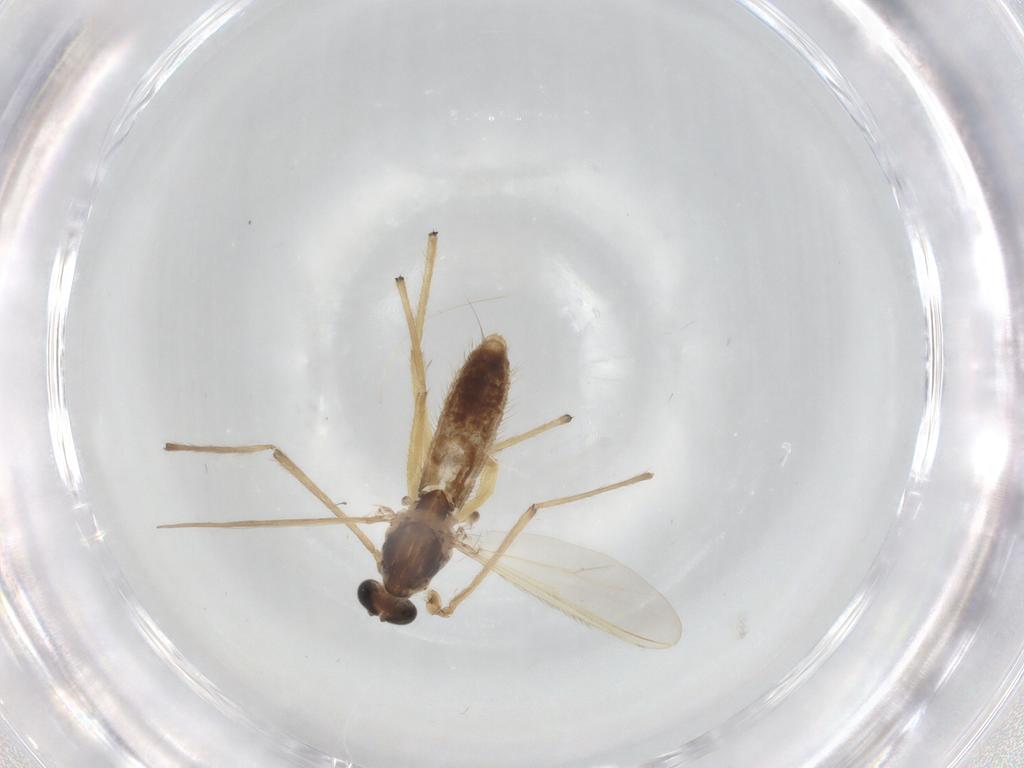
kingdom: Animalia
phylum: Arthropoda
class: Insecta
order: Diptera
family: Chironomidae
